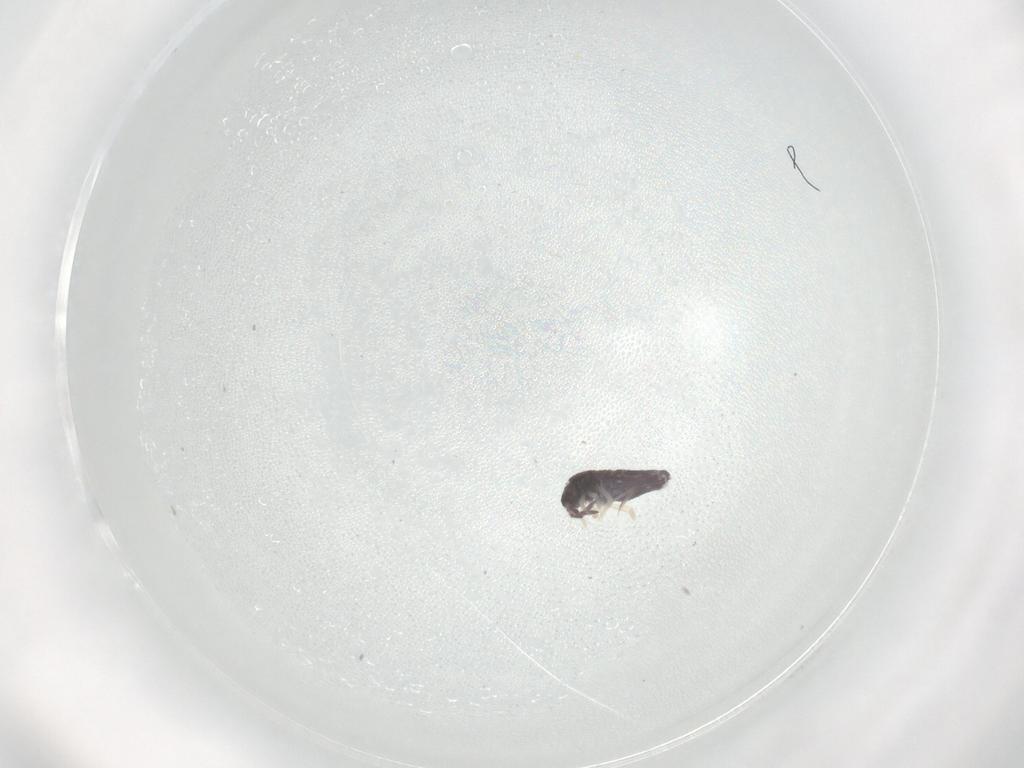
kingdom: Animalia
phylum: Arthropoda
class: Collembola
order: Entomobryomorpha
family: Entomobryidae
